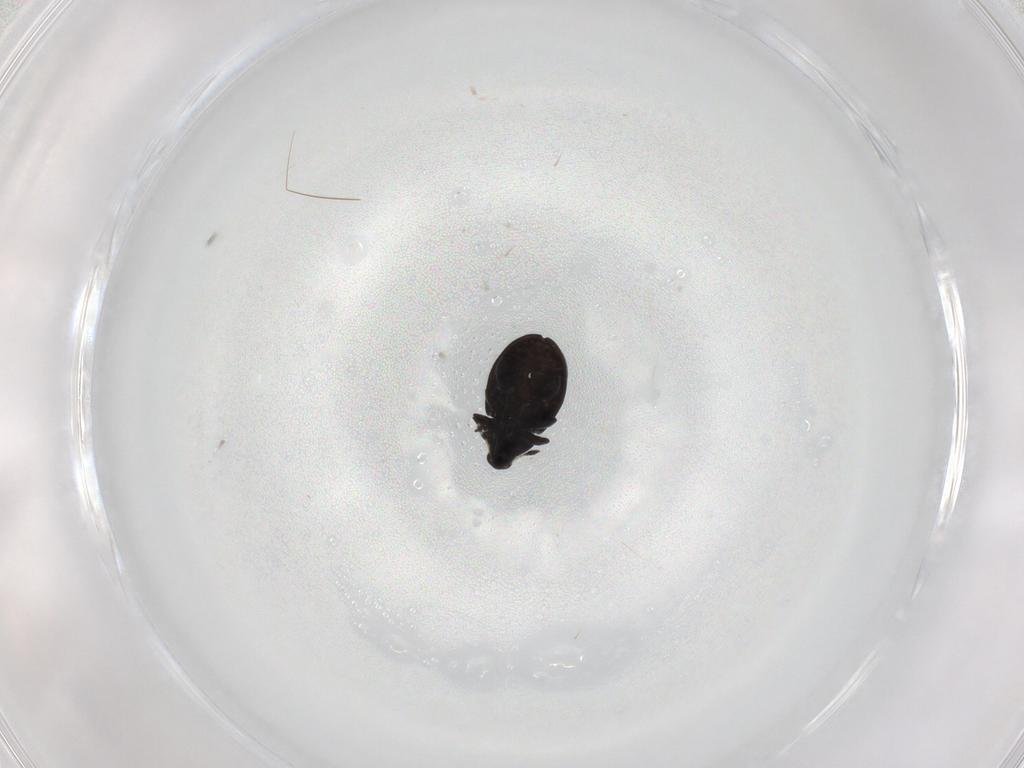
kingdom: Animalia
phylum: Arthropoda
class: Insecta
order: Coleoptera
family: Curculionidae
